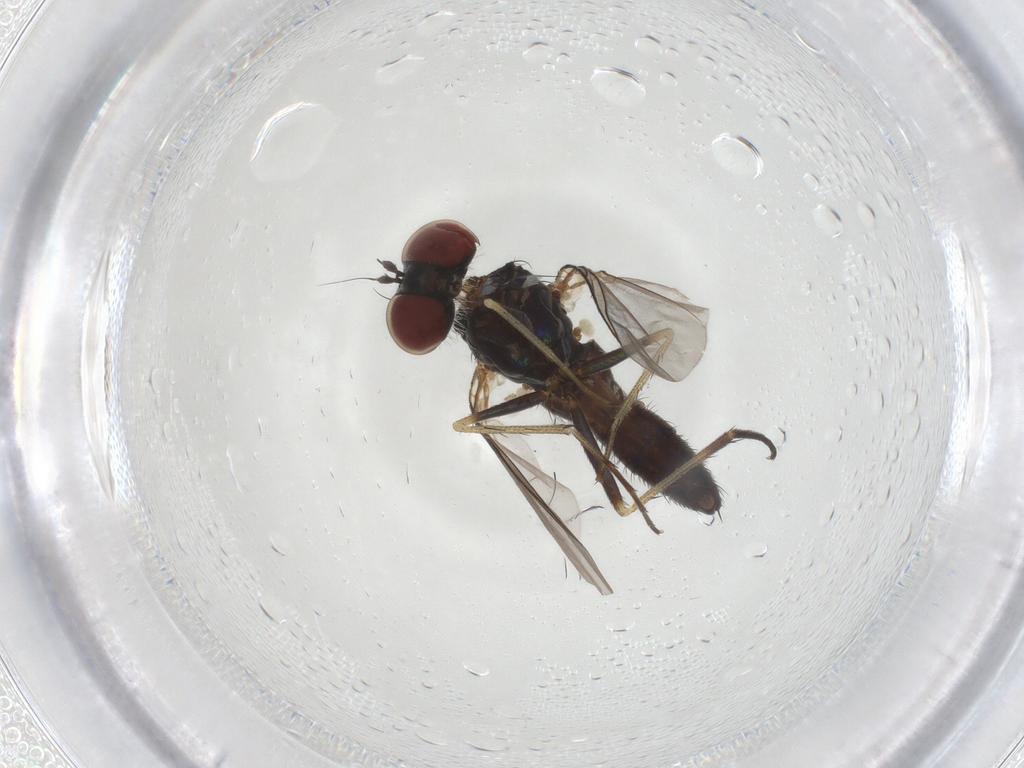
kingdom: Animalia
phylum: Arthropoda
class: Insecta
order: Diptera
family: Dolichopodidae
